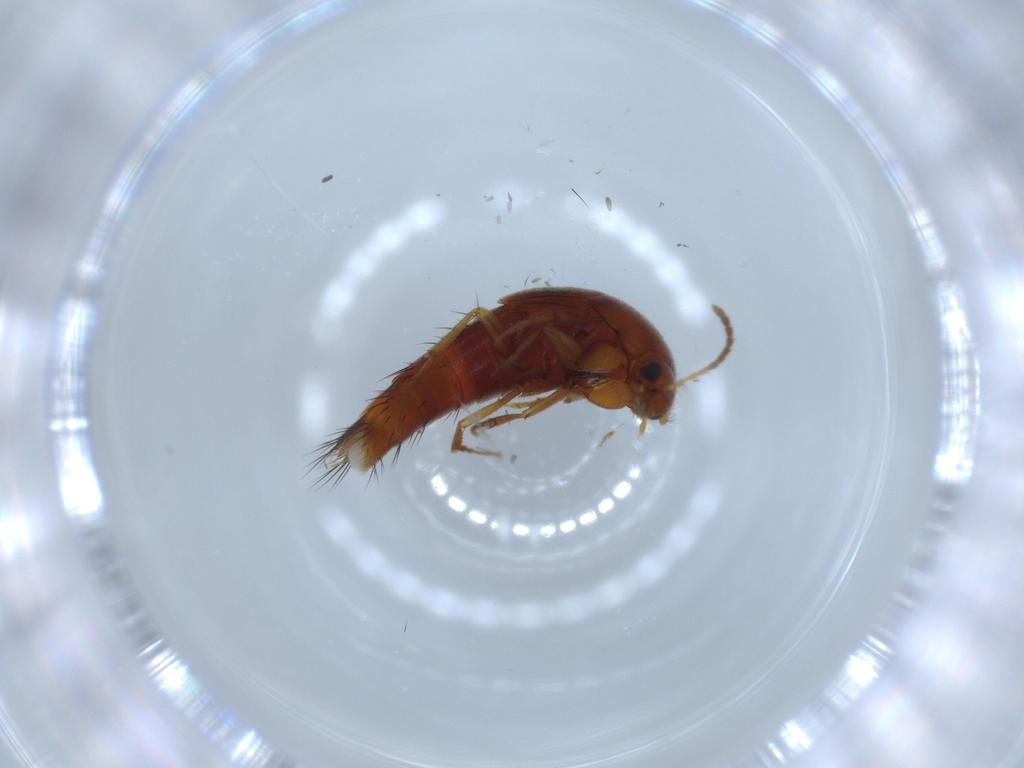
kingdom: Animalia
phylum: Arthropoda
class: Insecta
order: Coleoptera
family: Staphylinidae
